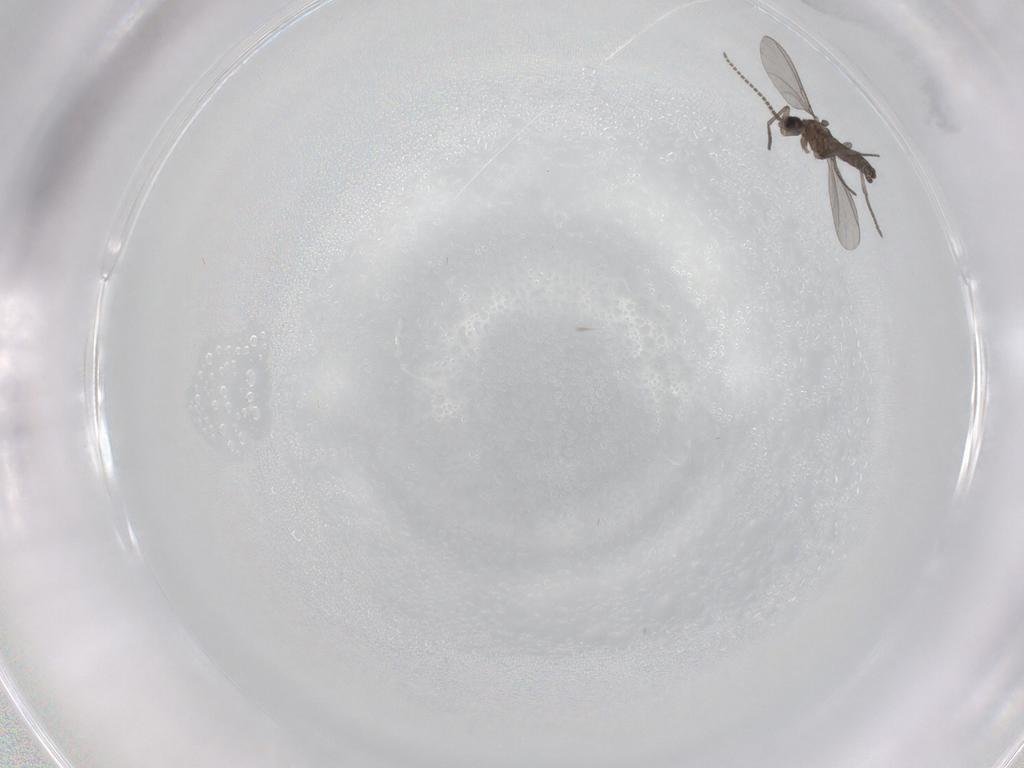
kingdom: Animalia
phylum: Arthropoda
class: Insecta
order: Diptera
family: Sciaridae
